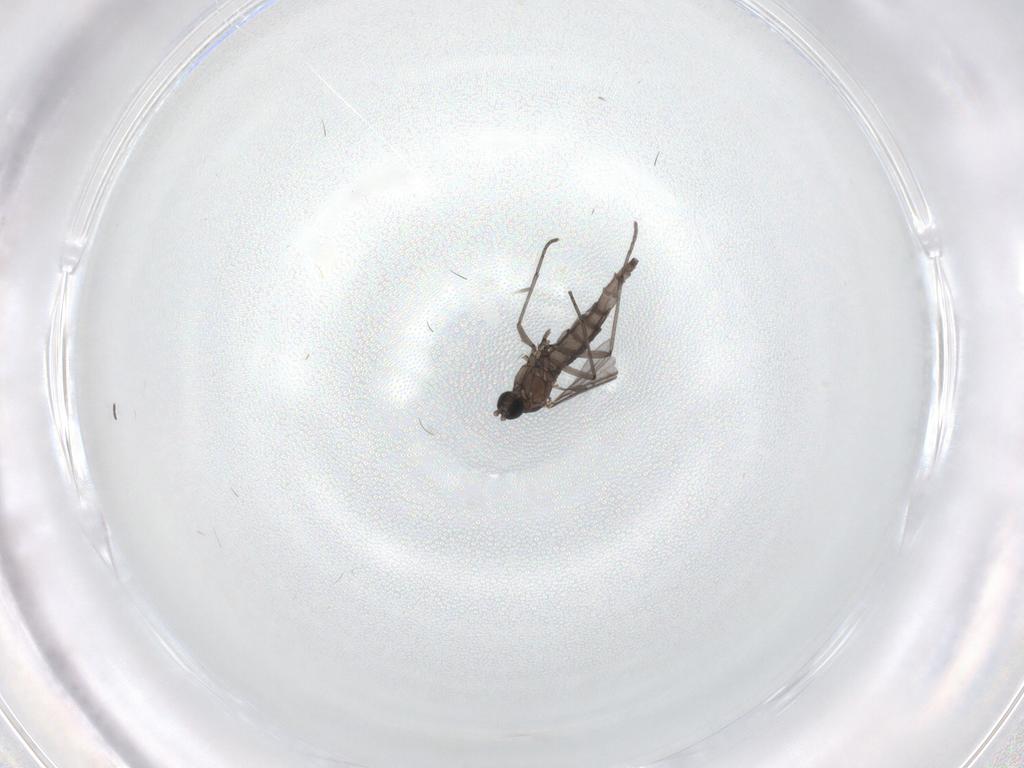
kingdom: Animalia
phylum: Arthropoda
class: Insecta
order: Diptera
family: Sciaridae
